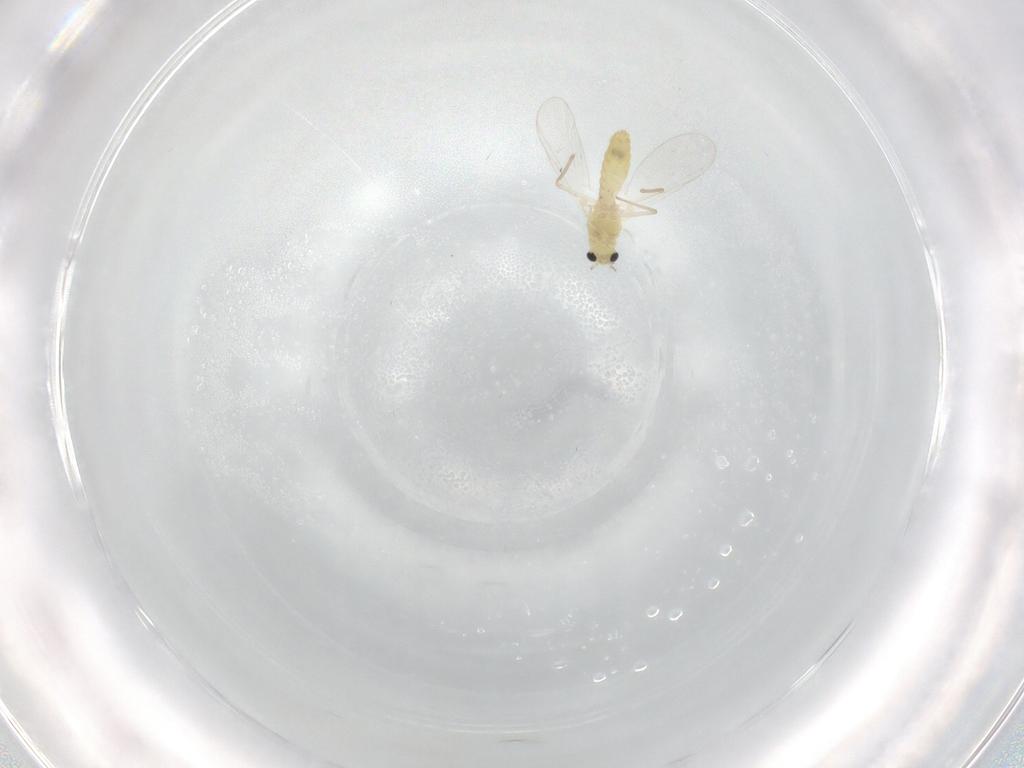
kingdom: Animalia
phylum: Arthropoda
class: Insecta
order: Diptera
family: Chironomidae
